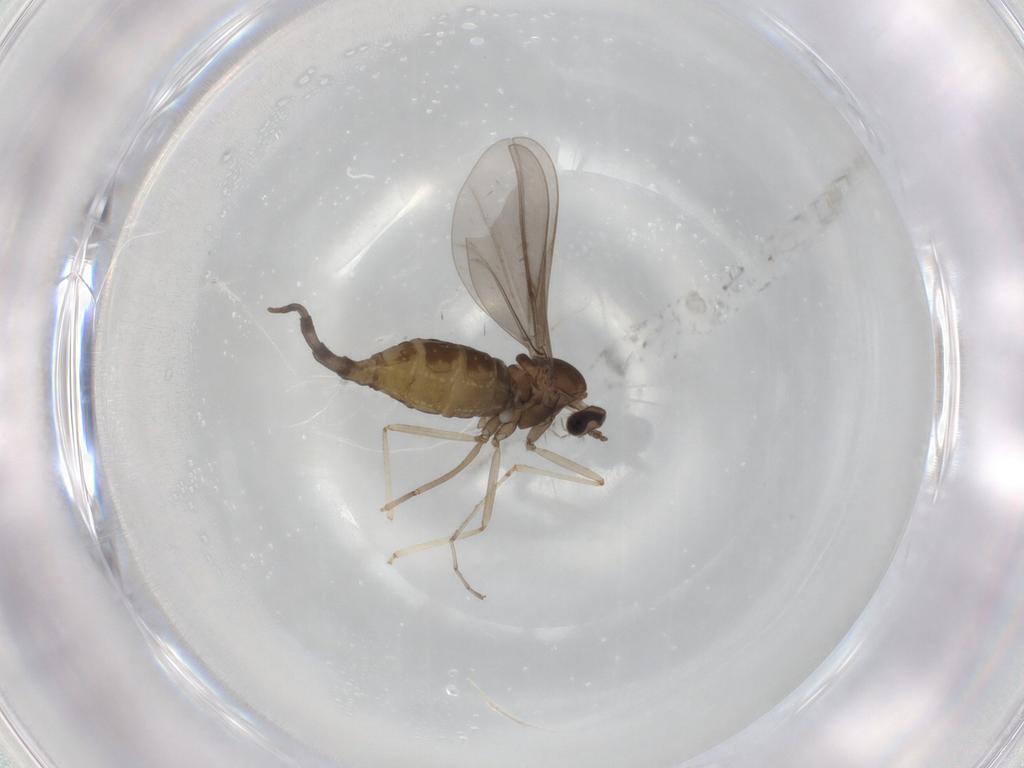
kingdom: Animalia
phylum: Arthropoda
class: Insecta
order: Diptera
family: Cecidomyiidae
